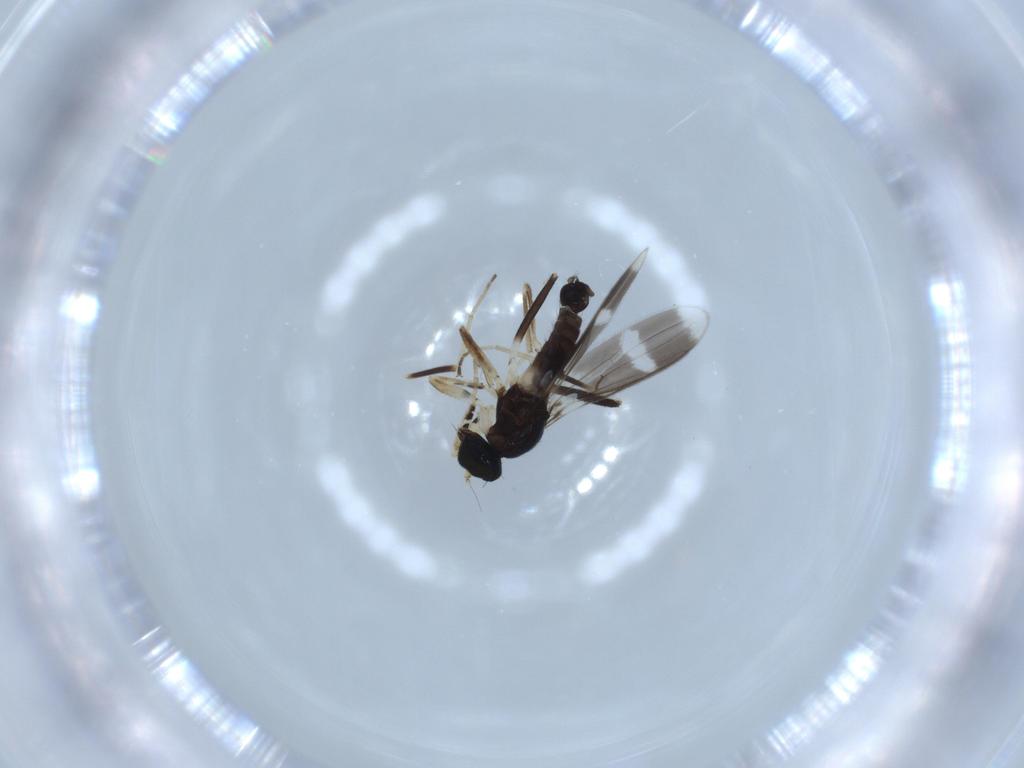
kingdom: Animalia
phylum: Arthropoda
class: Insecta
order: Diptera
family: Hybotidae
